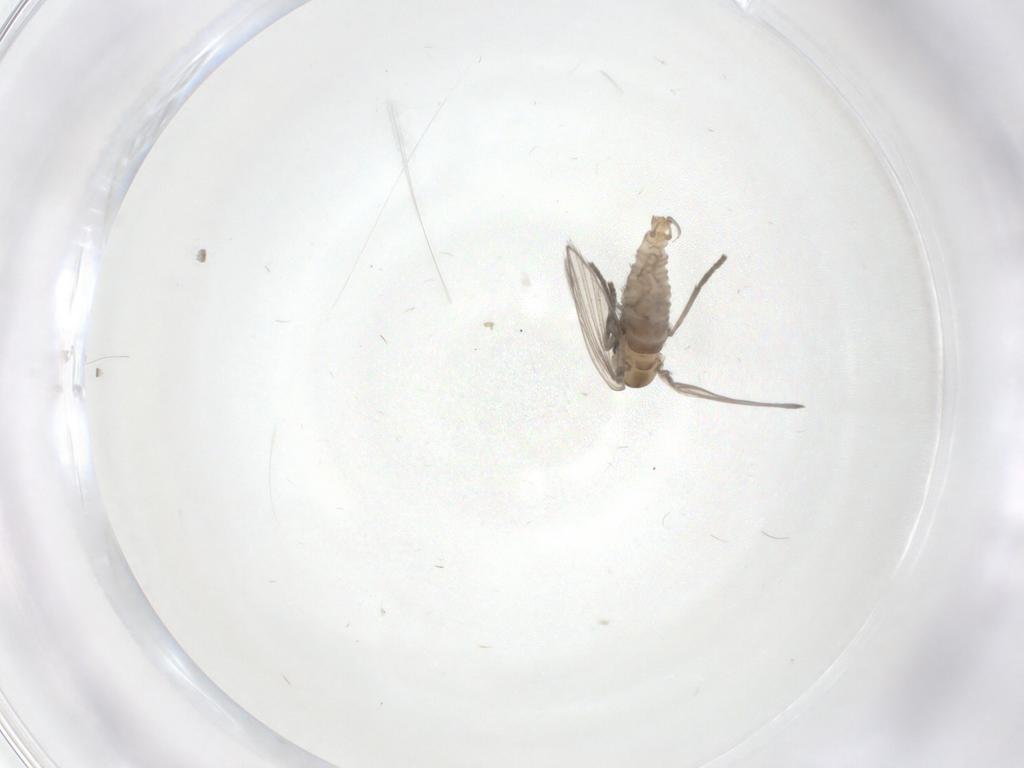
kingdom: Animalia
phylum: Arthropoda
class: Insecta
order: Diptera
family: Psychodidae
